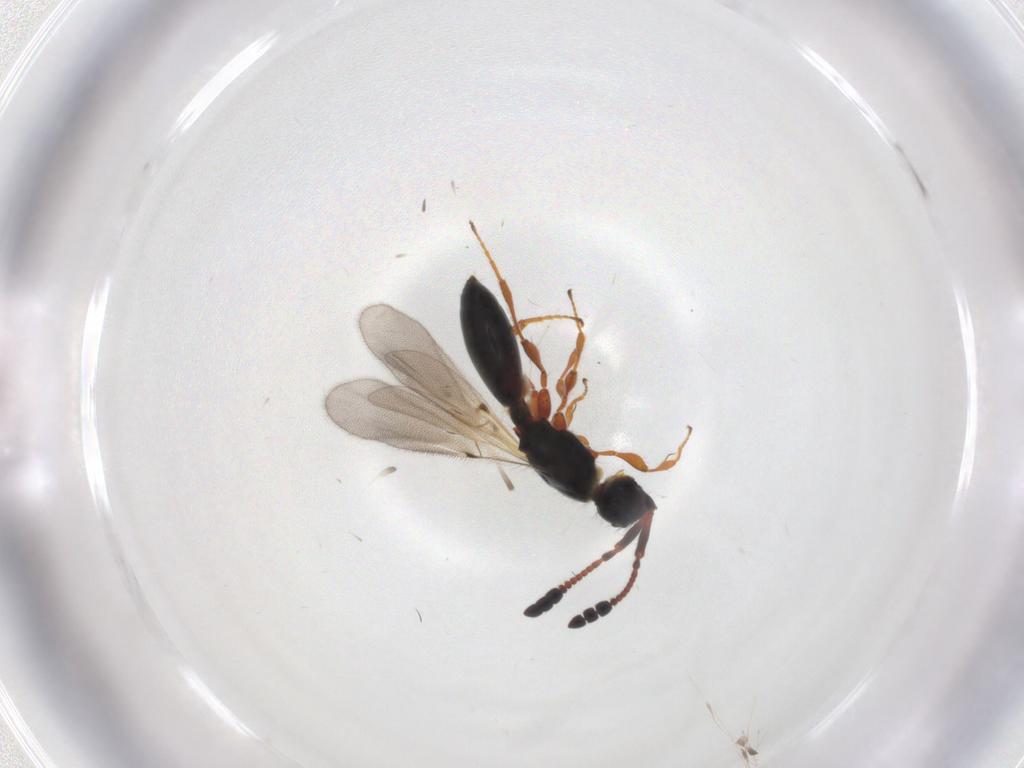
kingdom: Animalia
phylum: Arthropoda
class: Insecta
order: Hymenoptera
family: Diapriidae
